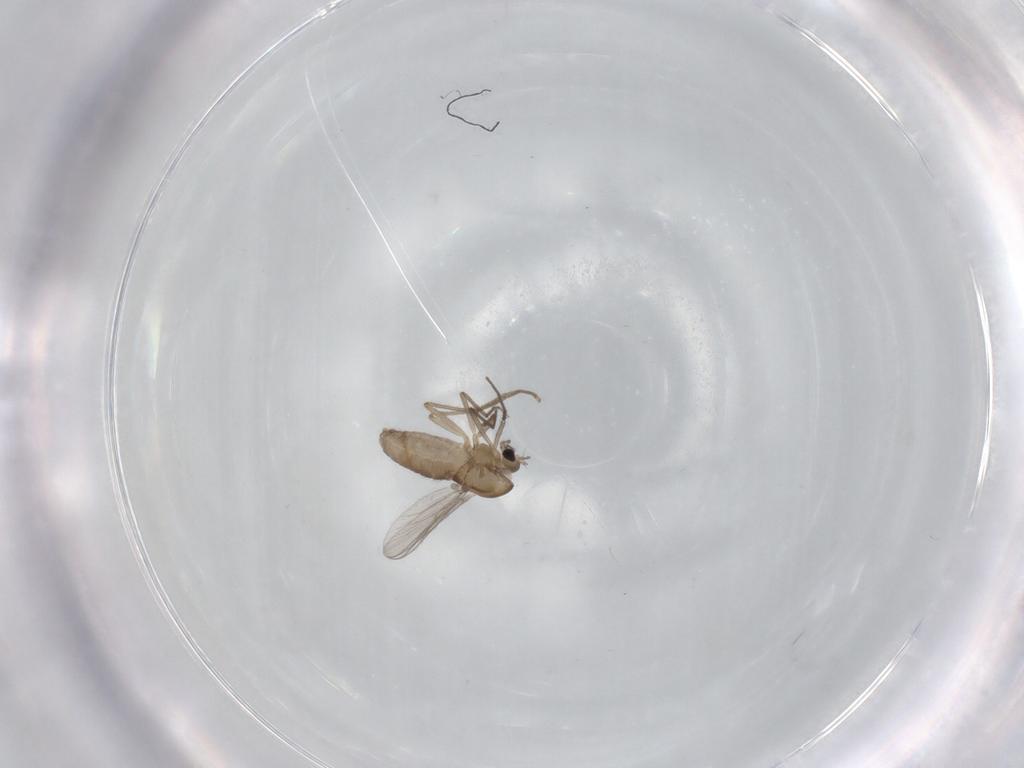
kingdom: Animalia
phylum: Arthropoda
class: Insecta
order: Diptera
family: Chironomidae
